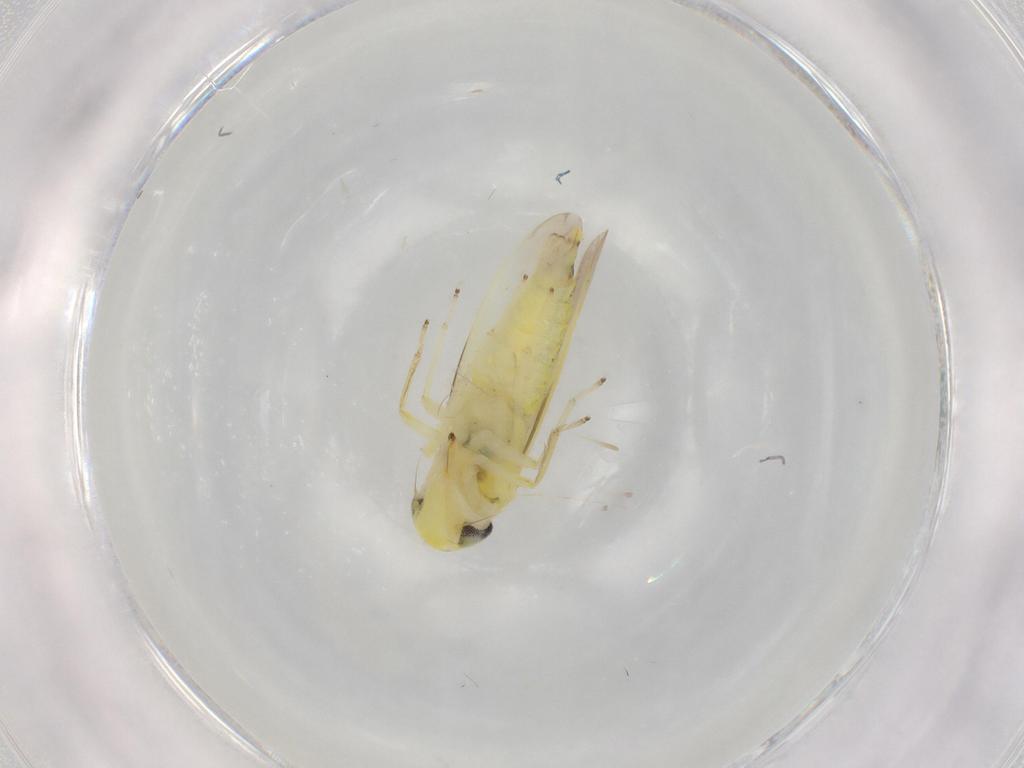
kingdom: Animalia
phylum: Arthropoda
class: Insecta
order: Hemiptera
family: Cicadellidae
